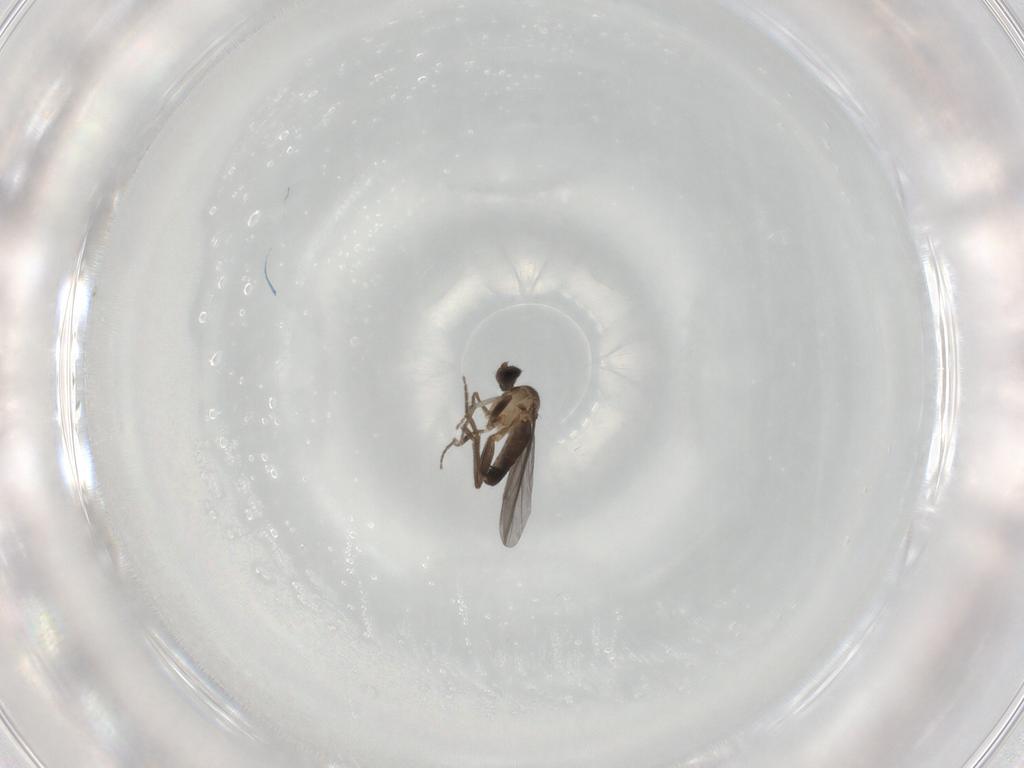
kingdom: Animalia
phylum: Arthropoda
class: Insecta
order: Diptera
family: Phoridae
